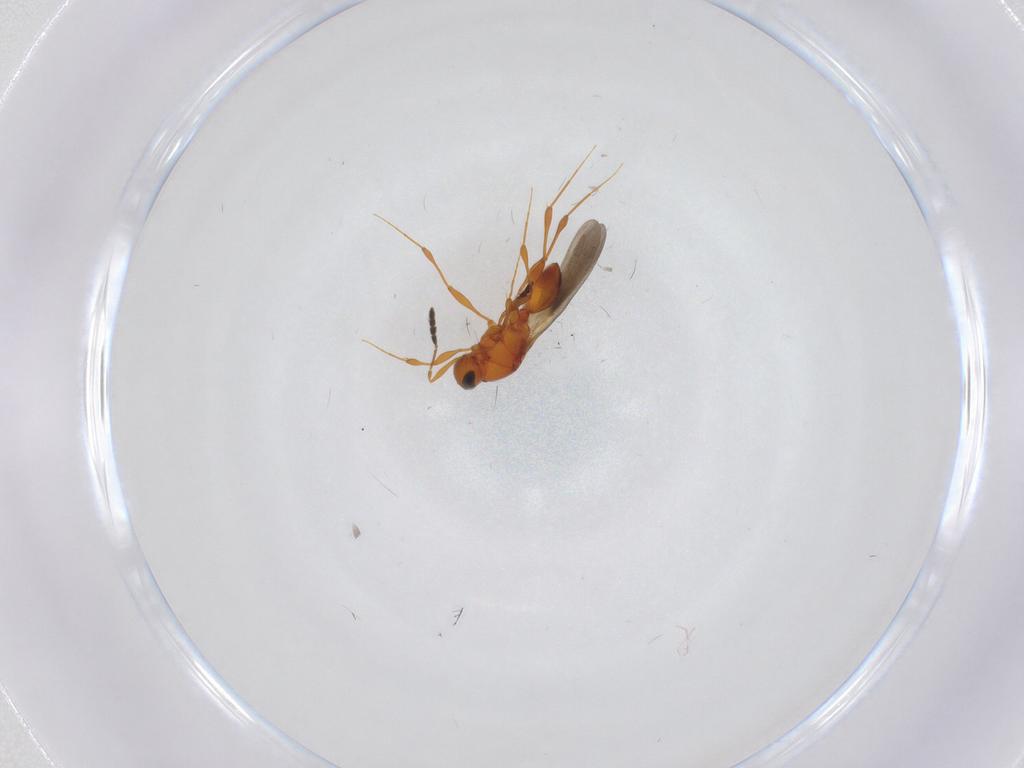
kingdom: Animalia
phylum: Arthropoda
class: Insecta
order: Hymenoptera
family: Platygastridae
